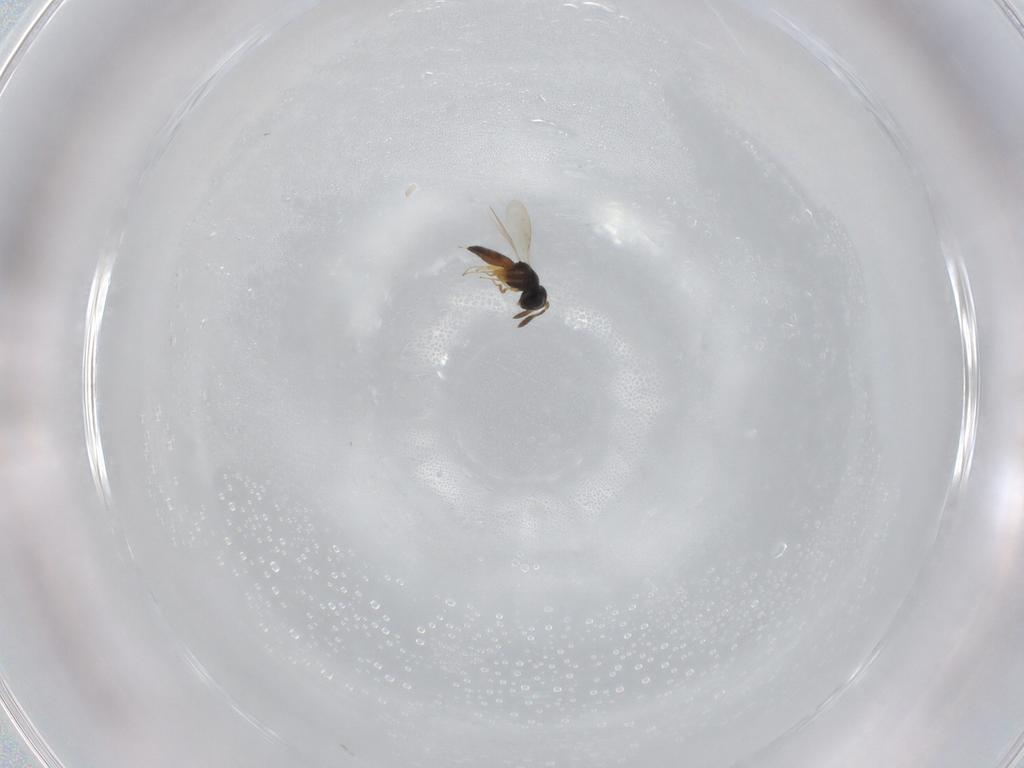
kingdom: Animalia
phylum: Arthropoda
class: Insecta
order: Hymenoptera
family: Scelionidae
